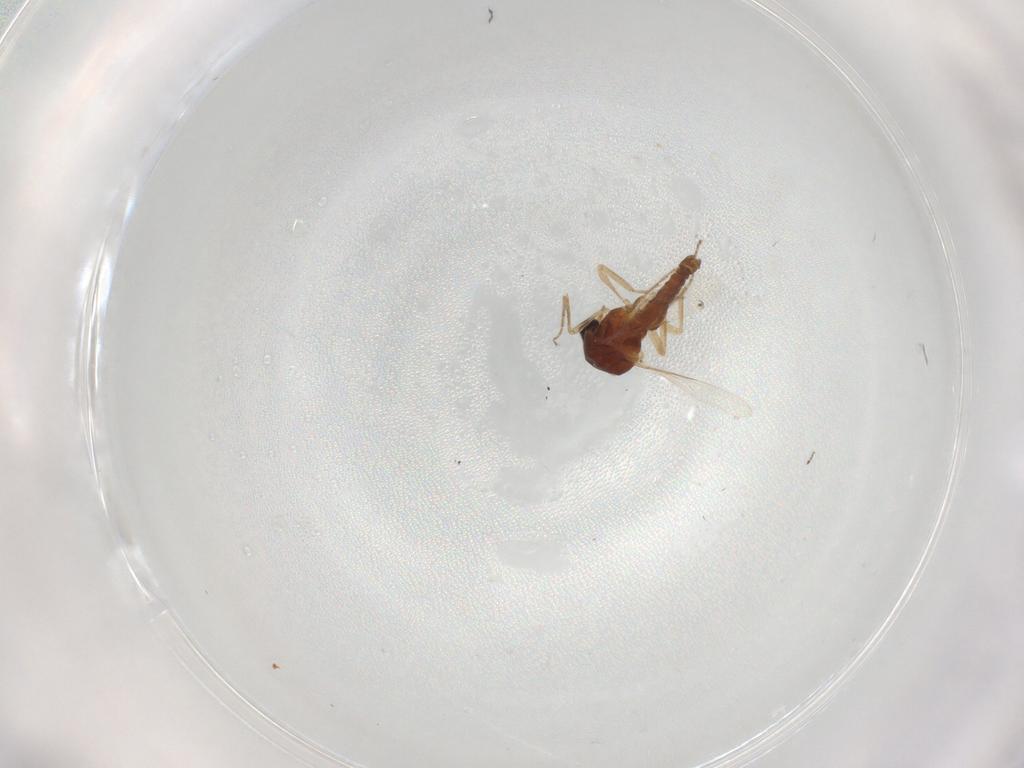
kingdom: Animalia
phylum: Arthropoda
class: Insecta
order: Diptera
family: Ceratopogonidae
